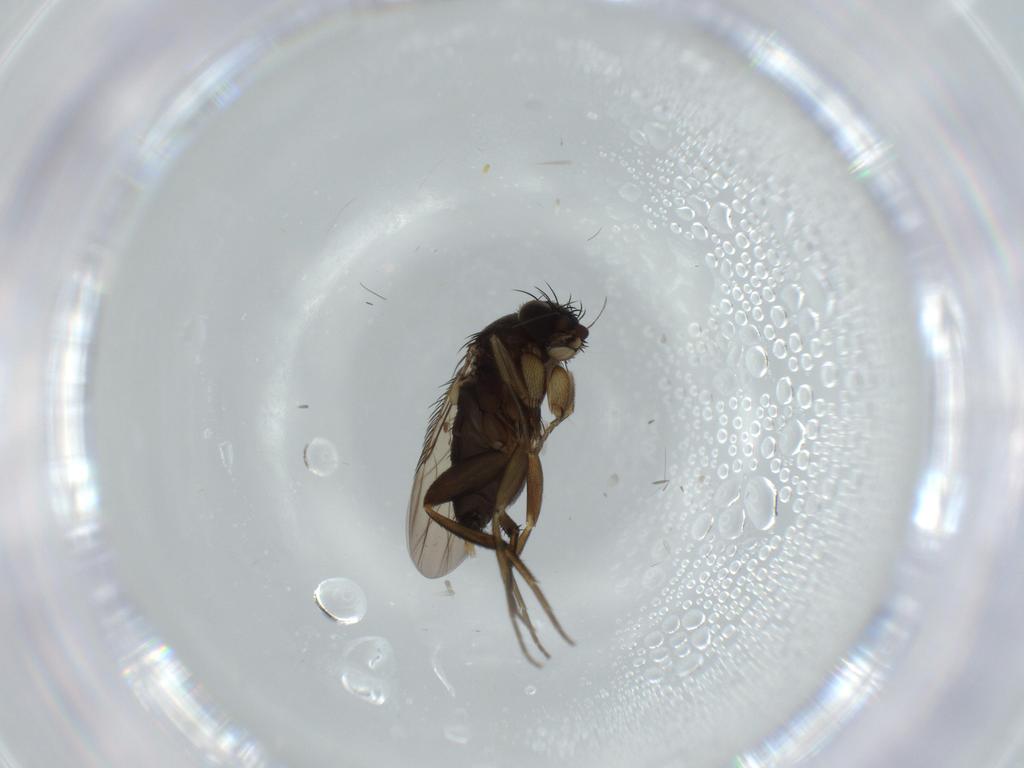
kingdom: Animalia
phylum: Arthropoda
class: Insecta
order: Diptera
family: Phoridae
